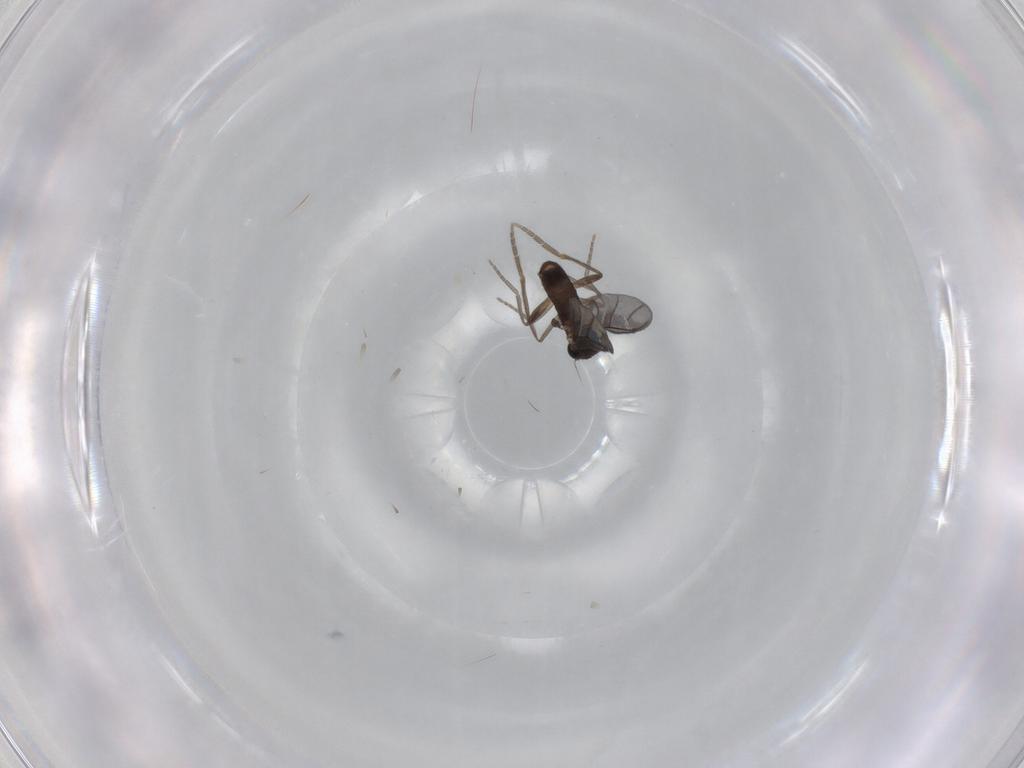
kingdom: Animalia
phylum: Arthropoda
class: Insecta
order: Diptera
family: Phoridae
